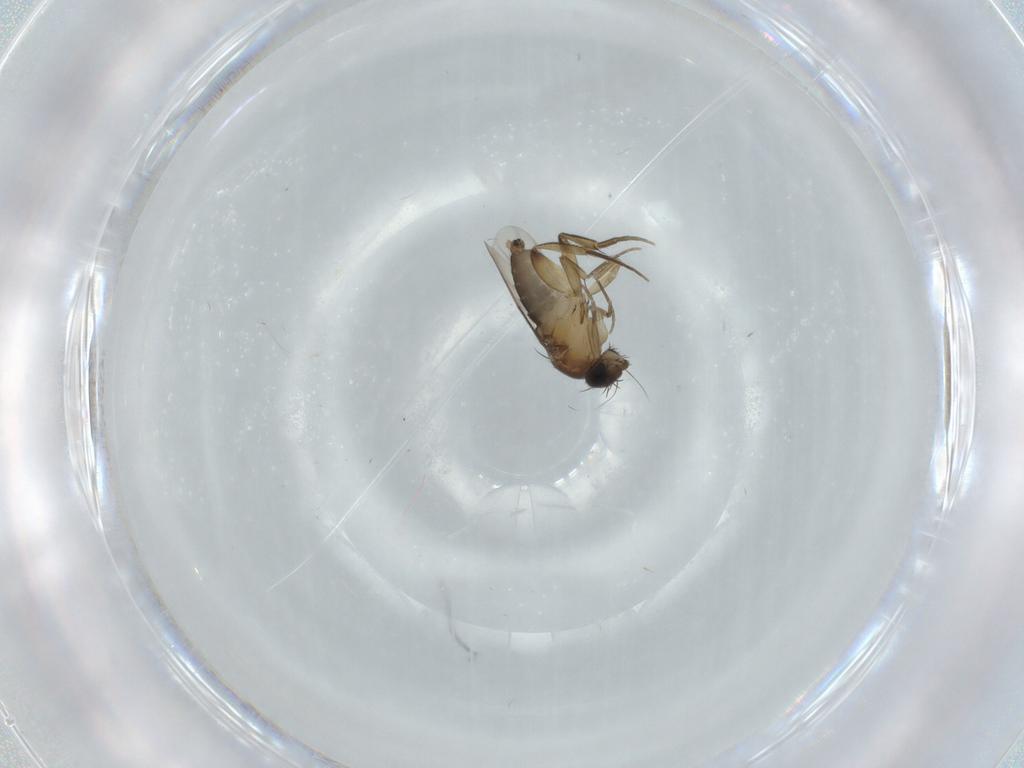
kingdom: Animalia
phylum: Arthropoda
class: Insecta
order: Diptera
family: Phoridae
